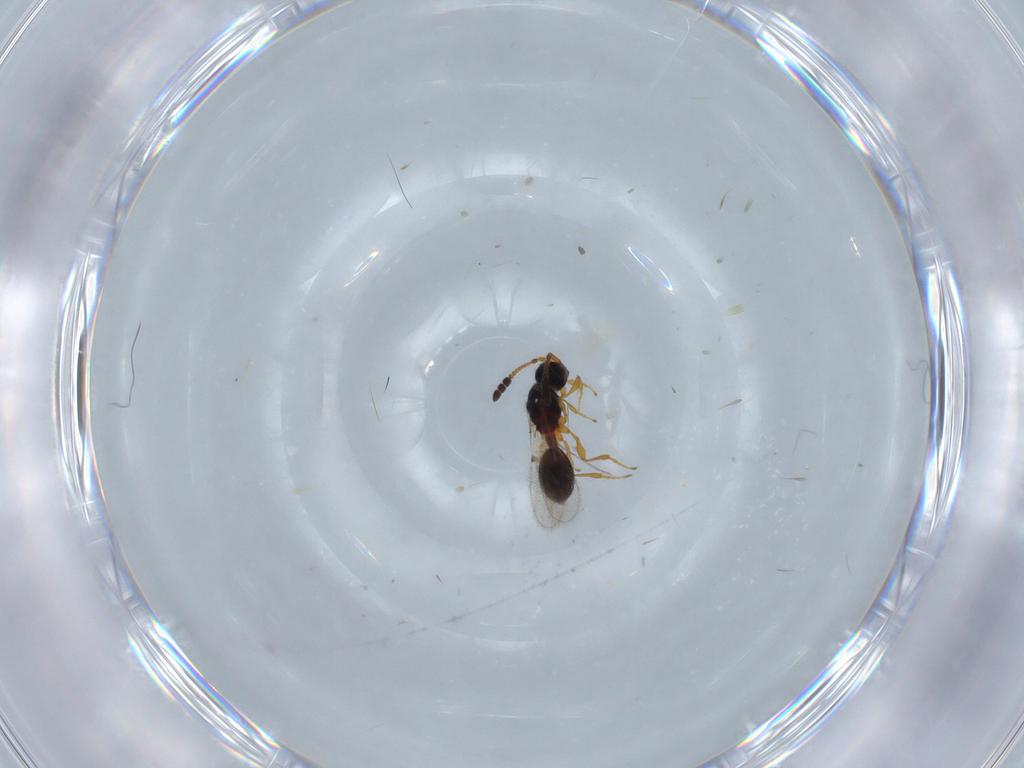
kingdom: Animalia
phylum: Arthropoda
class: Insecta
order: Hymenoptera
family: Diapriidae
